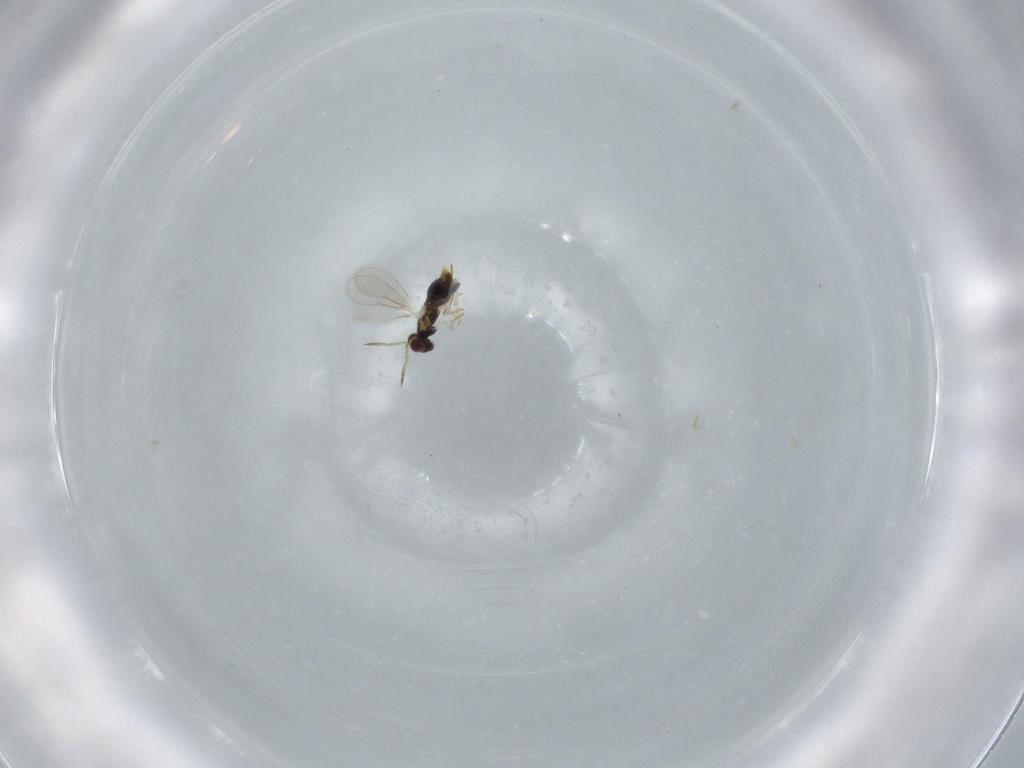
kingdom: Animalia
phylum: Arthropoda
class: Insecta
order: Hymenoptera
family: Aphelinidae
